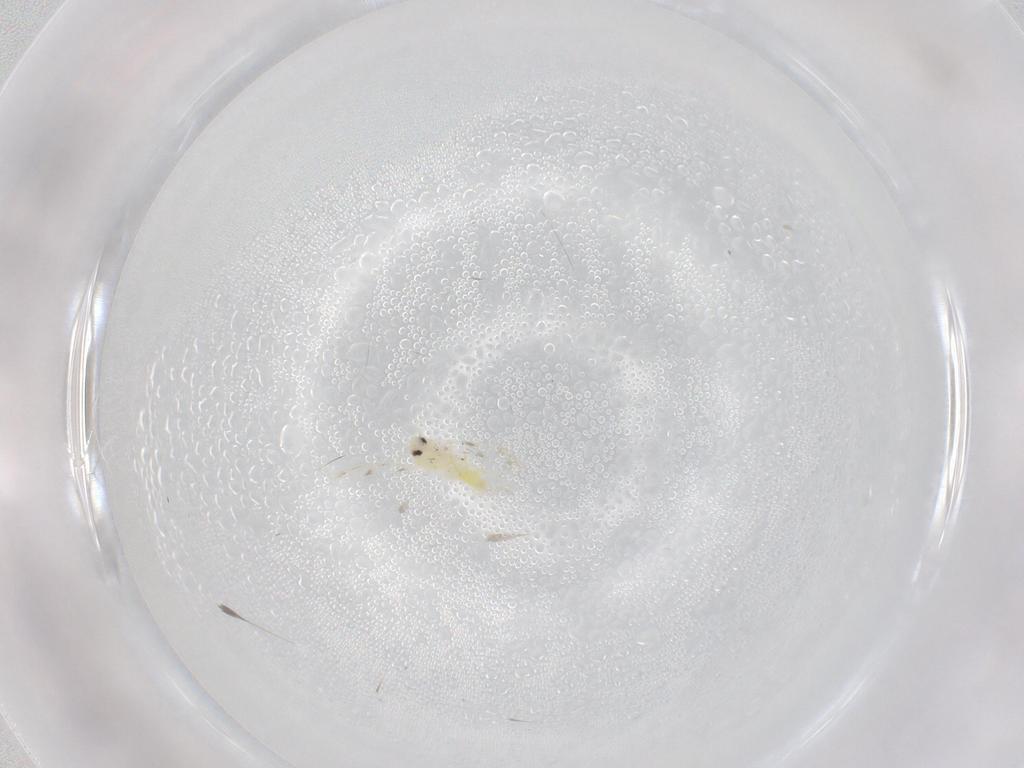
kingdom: Animalia
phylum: Arthropoda
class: Insecta
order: Hemiptera
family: Aleyrodidae
